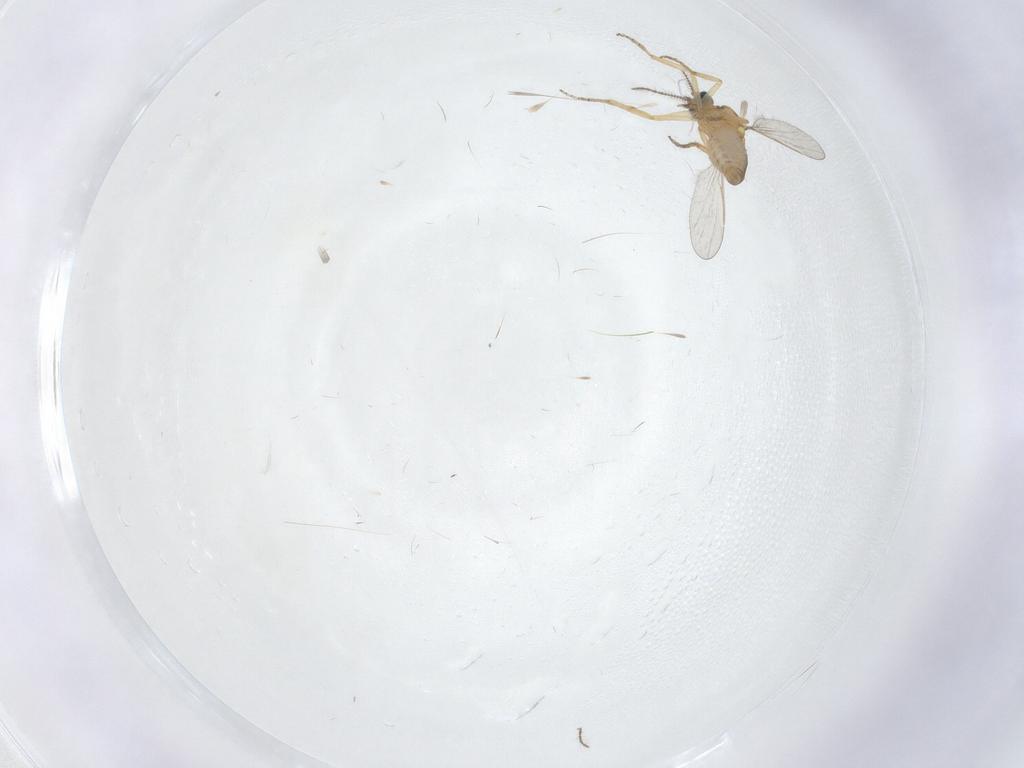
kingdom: Animalia
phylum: Arthropoda
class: Insecta
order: Diptera
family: Ceratopogonidae
